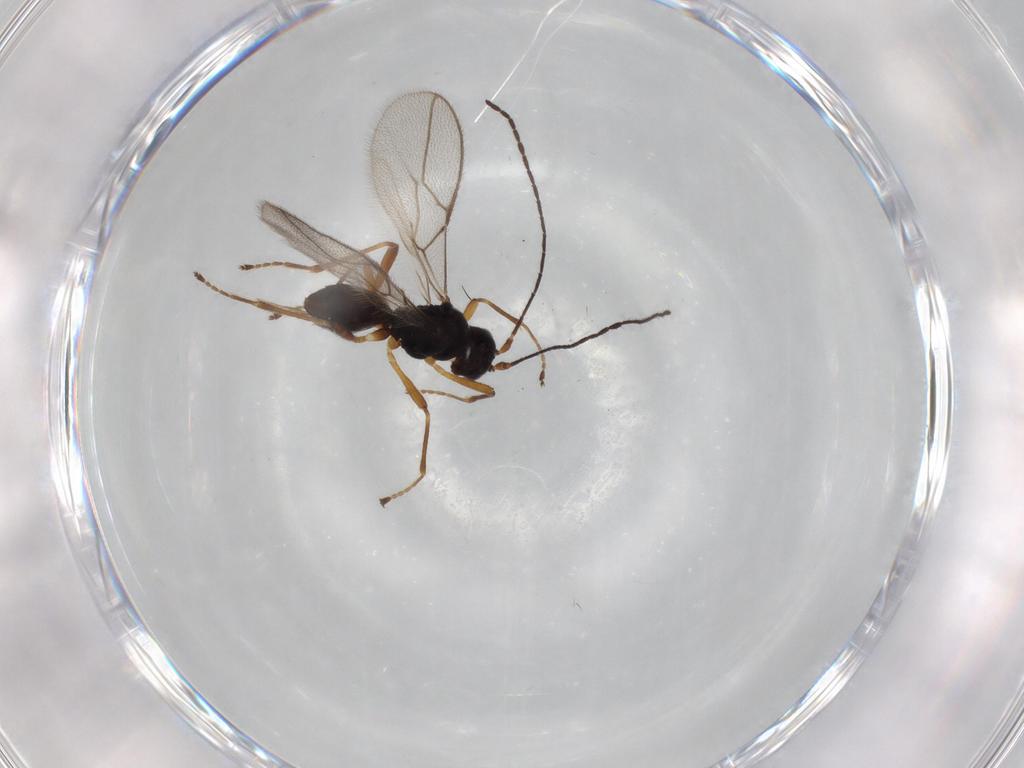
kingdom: Animalia
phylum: Arthropoda
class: Insecta
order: Hymenoptera
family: Braconidae
